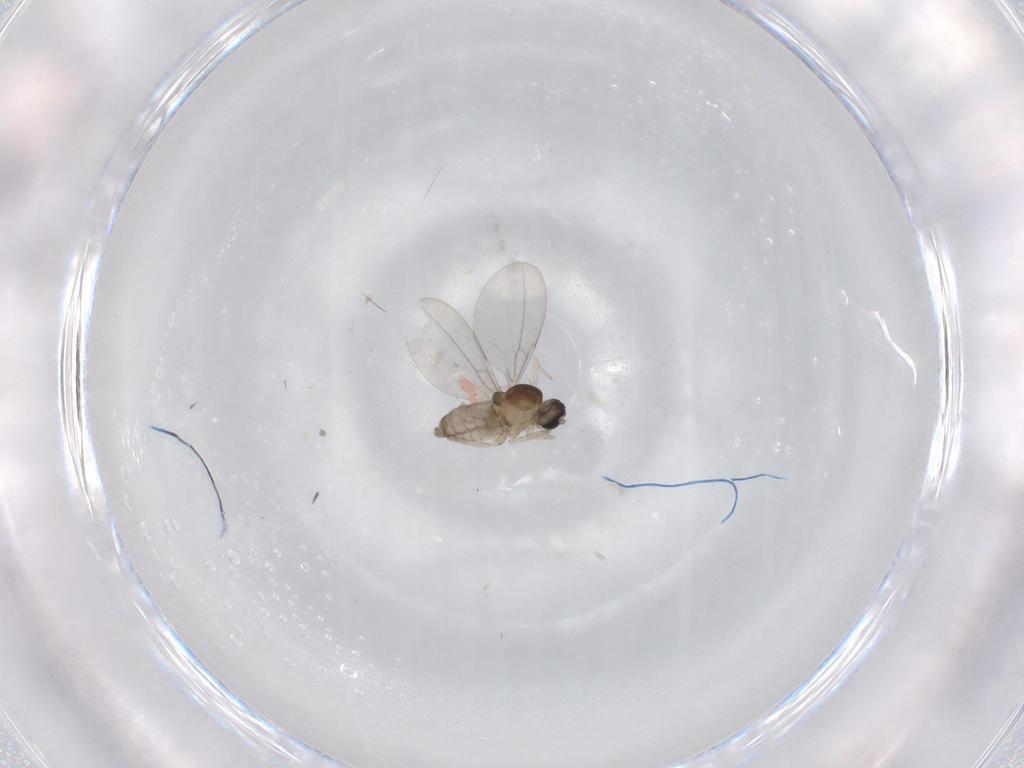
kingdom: Animalia
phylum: Arthropoda
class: Insecta
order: Diptera
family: Cecidomyiidae
